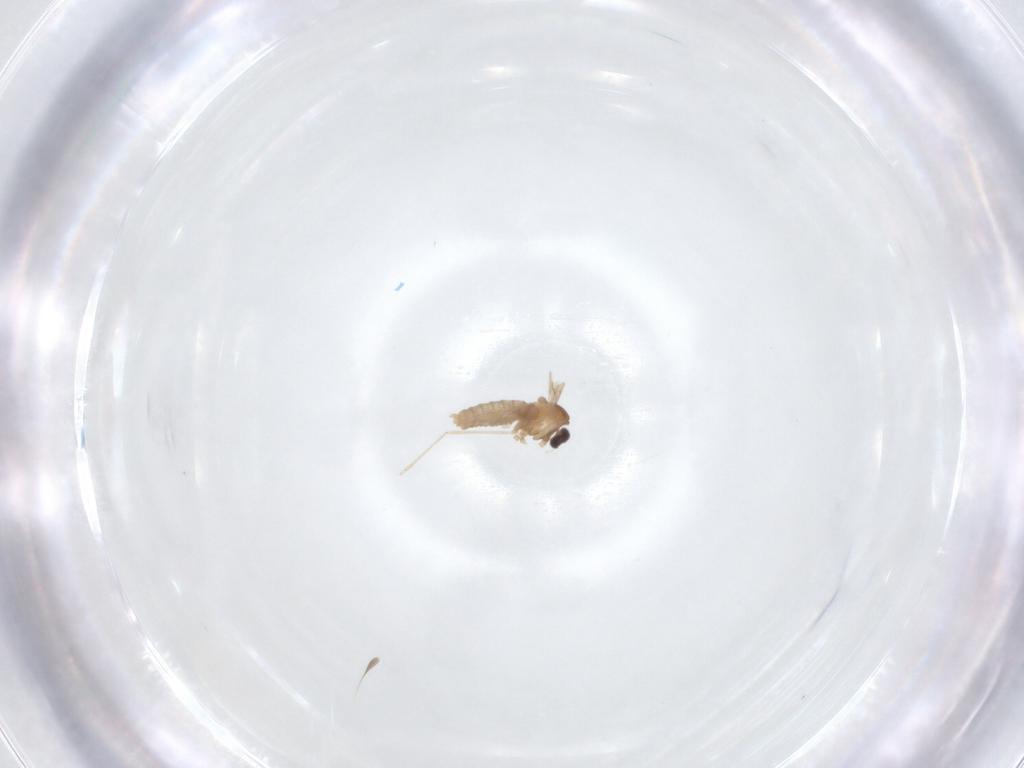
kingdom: Animalia
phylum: Arthropoda
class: Insecta
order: Diptera
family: Cecidomyiidae
